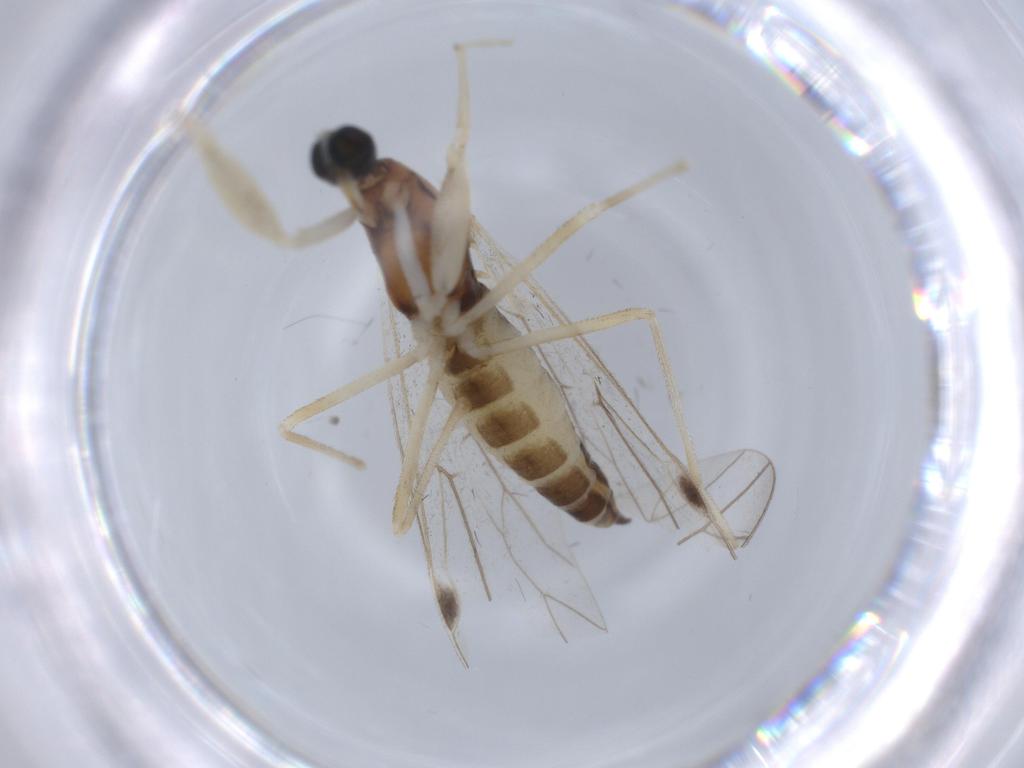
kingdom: Animalia
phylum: Arthropoda
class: Insecta
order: Diptera
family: Empididae
